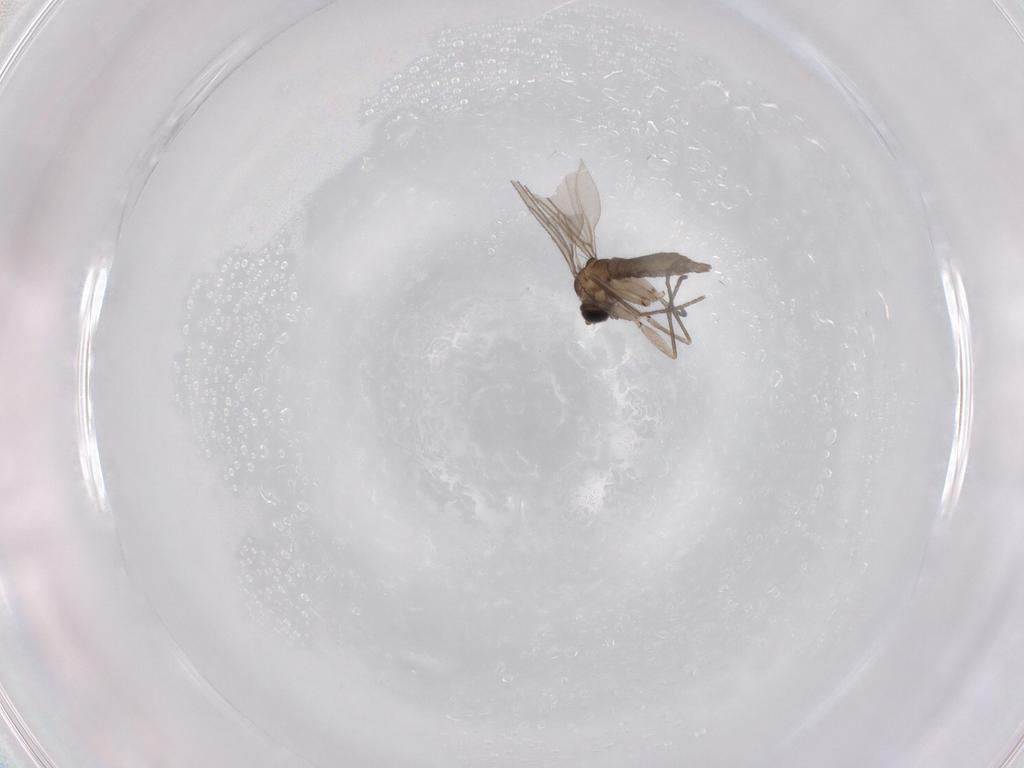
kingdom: Animalia
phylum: Arthropoda
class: Insecta
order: Diptera
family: Sciaridae
